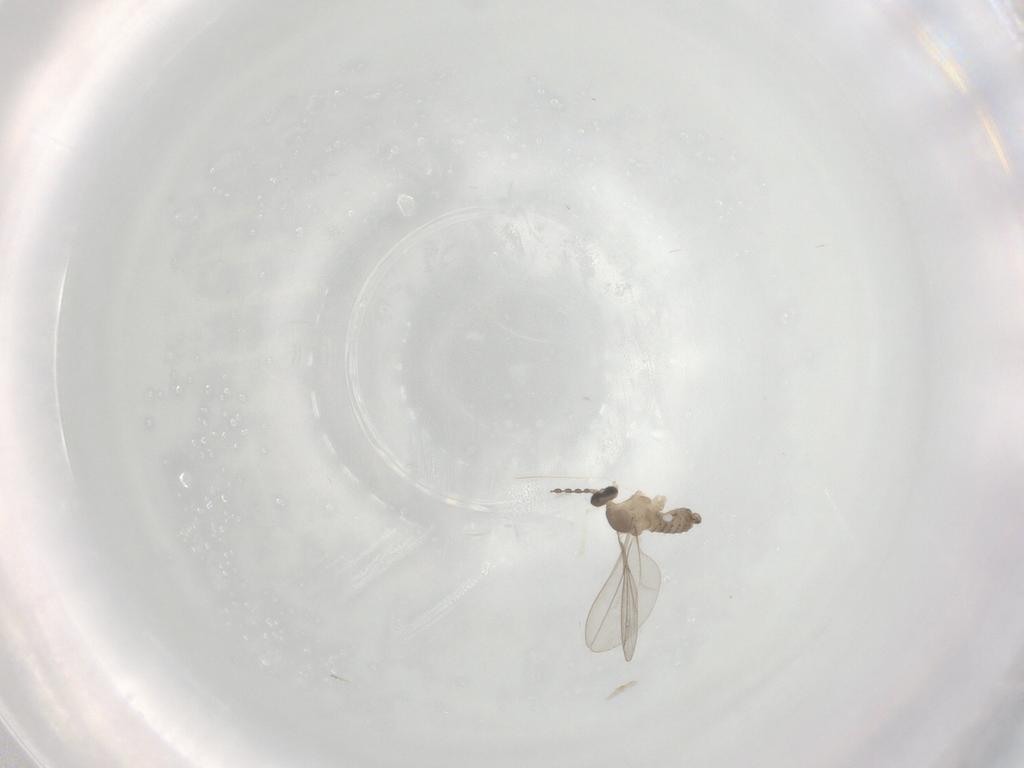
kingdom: Animalia
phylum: Arthropoda
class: Insecta
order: Diptera
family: Cecidomyiidae
